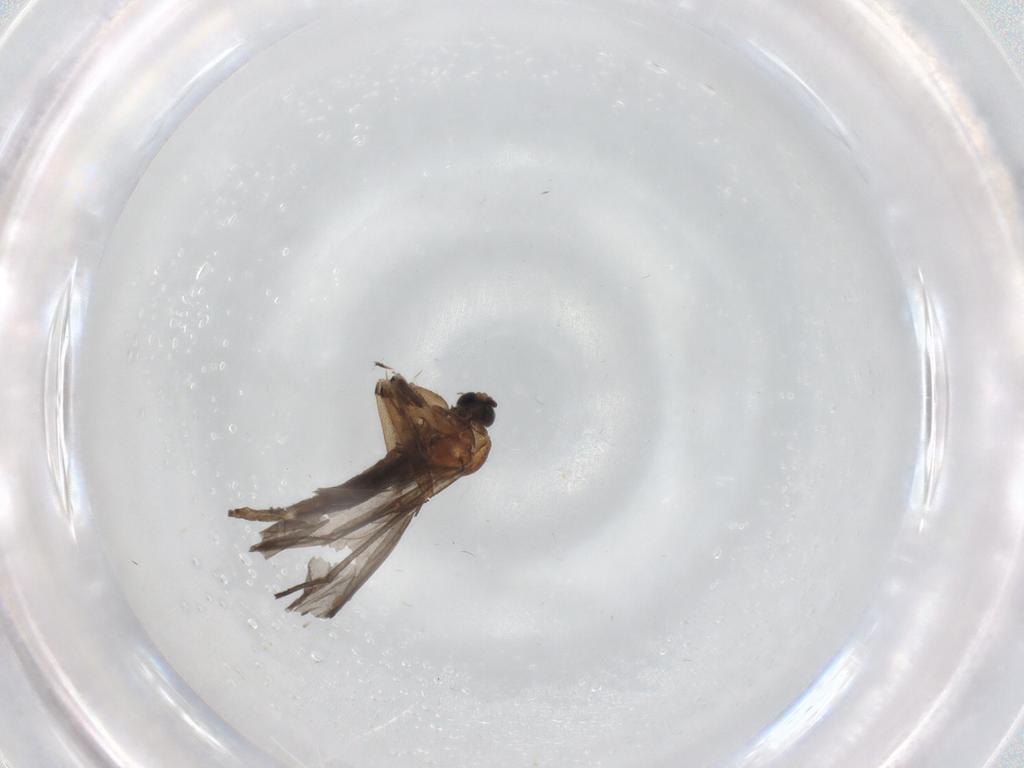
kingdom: Animalia
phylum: Arthropoda
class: Insecta
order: Diptera
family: Sciaridae
